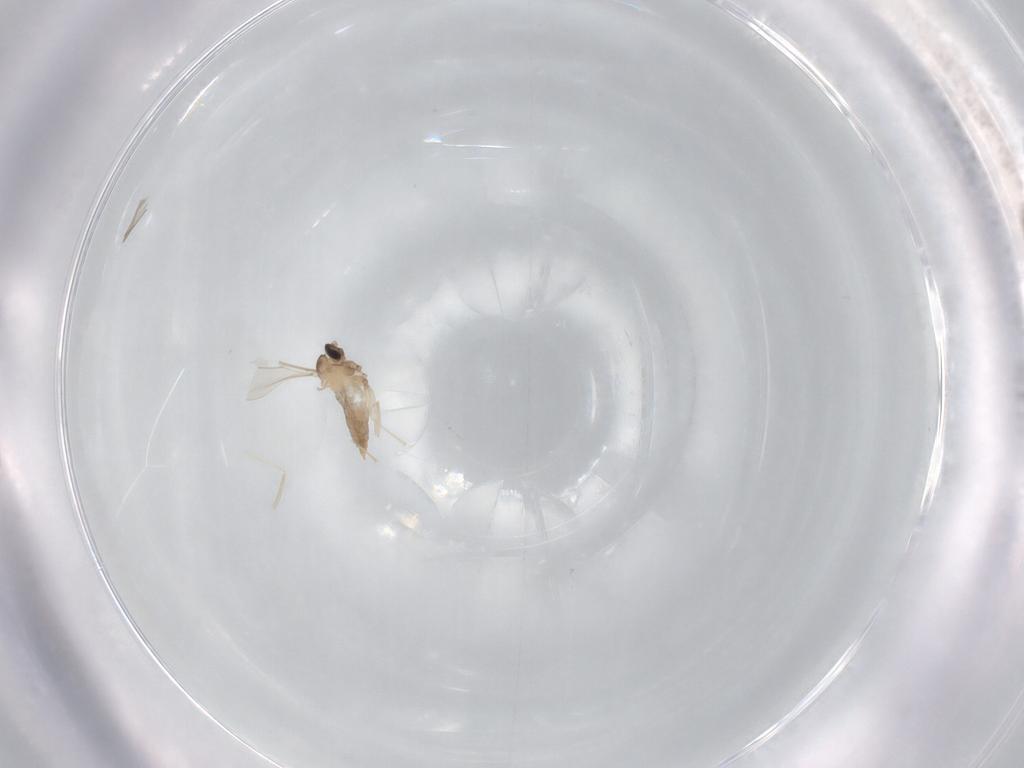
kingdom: Animalia
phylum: Arthropoda
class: Insecta
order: Diptera
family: Cecidomyiidae
